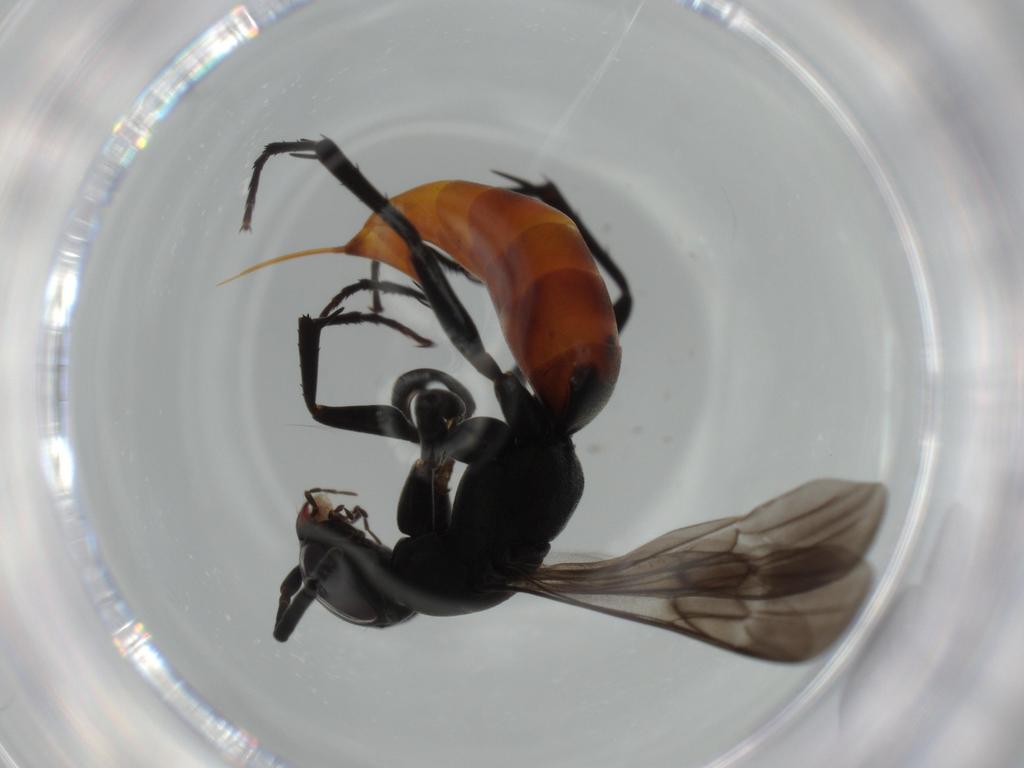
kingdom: Animalia
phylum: Arthropoda
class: Insecta
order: Hymenoptera
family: Pompilidae
